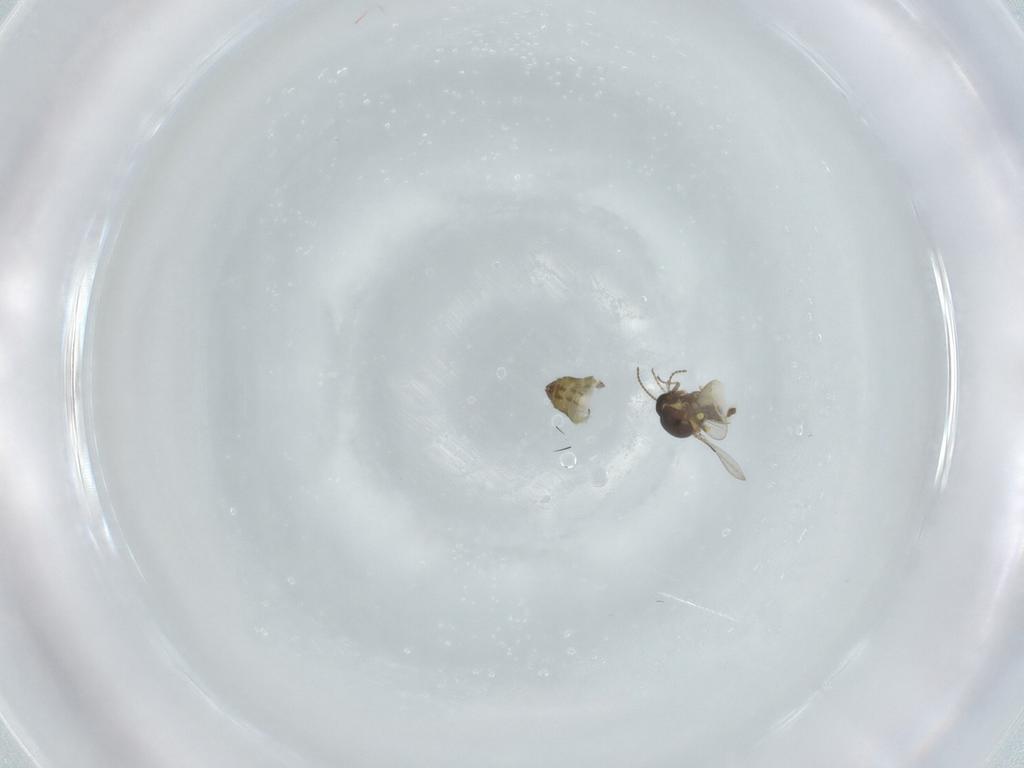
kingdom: Animalia
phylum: Arthropoda
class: Insecta
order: Diptera
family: Ceratopogonidae
